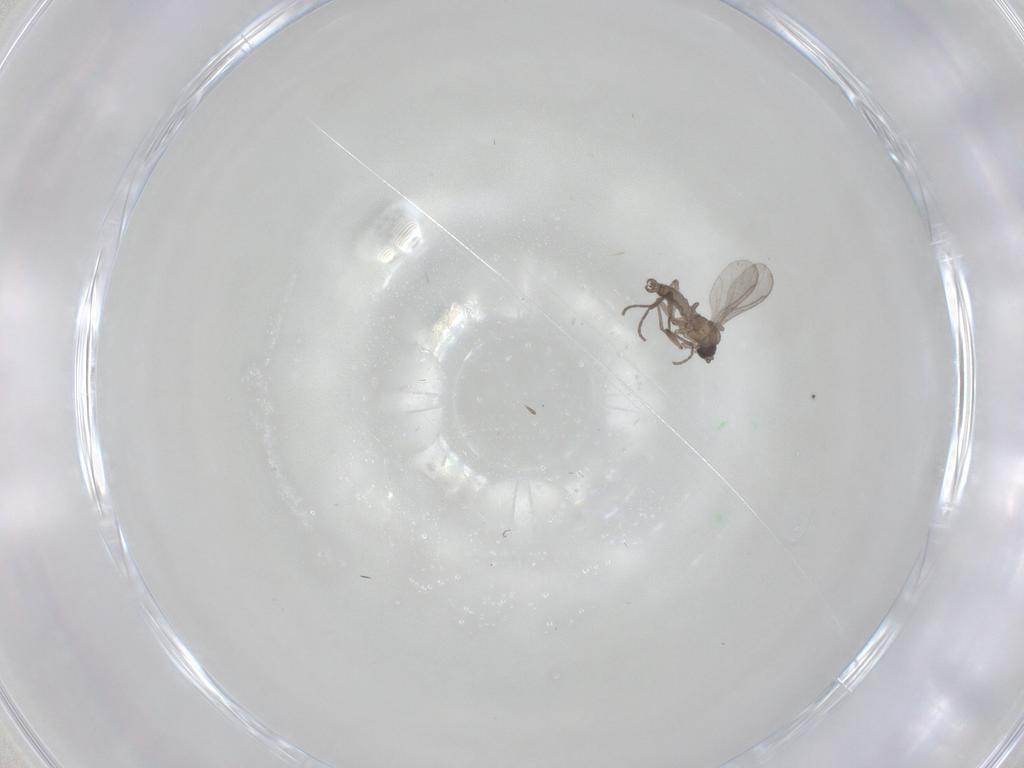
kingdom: Animalia
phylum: Arthropoda
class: Insecta
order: Diptera
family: Sciaridae
